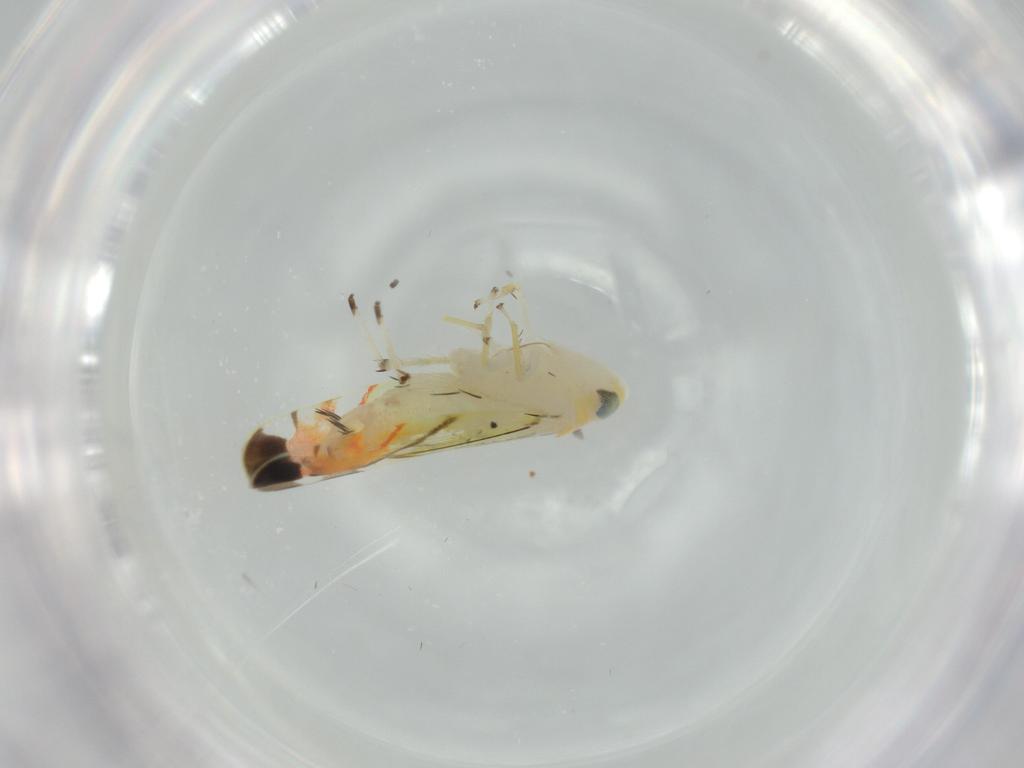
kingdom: Animalia
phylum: Arthropoda
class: Insecta
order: Hemiptera
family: Cicadellidae
